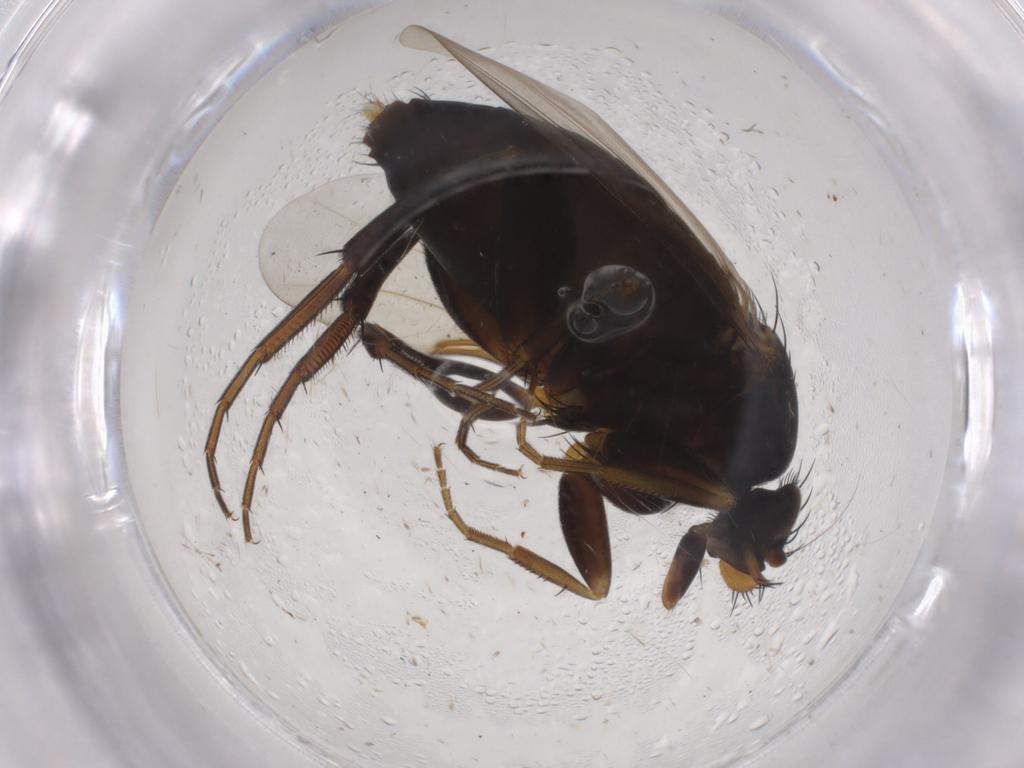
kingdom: Animalia
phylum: Arthropoda
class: Insecta
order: Diptera
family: Phoridae
